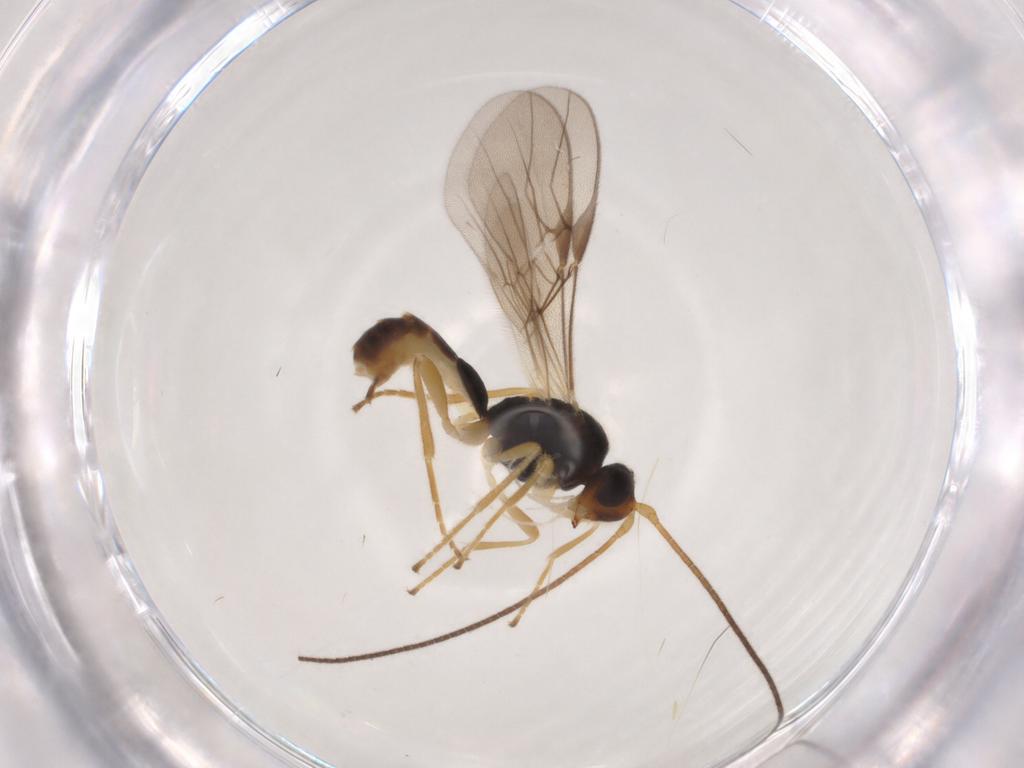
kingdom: Animalia
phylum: Arthropoda
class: Insecta
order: Hymenoptera
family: Braconidae
